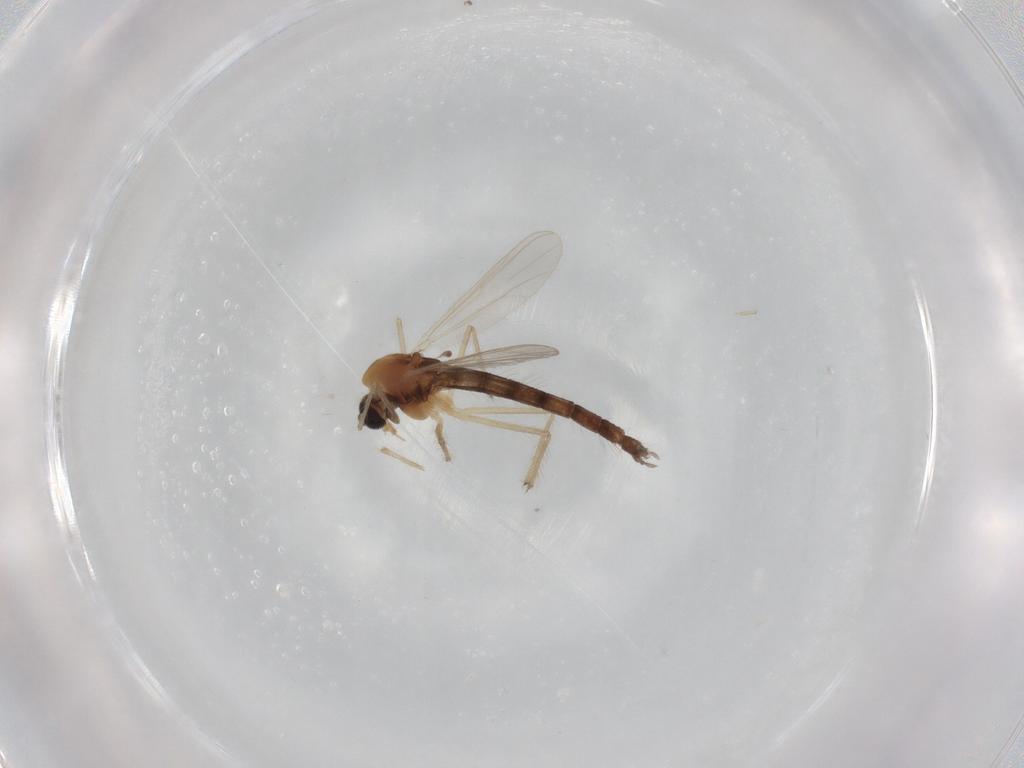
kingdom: Animalia
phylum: Arthropoda
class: Insecta
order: Diptera
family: Chironomidae
